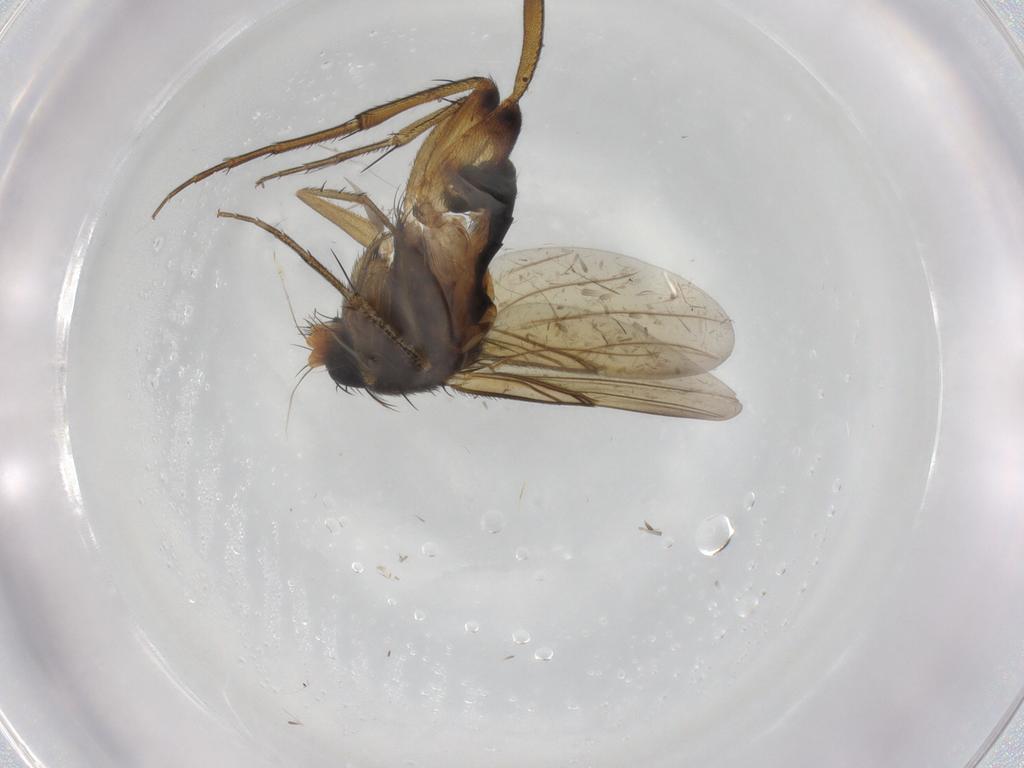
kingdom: Animalia
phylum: Arthropoda
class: Insecta
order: Diptera
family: Phoridae
